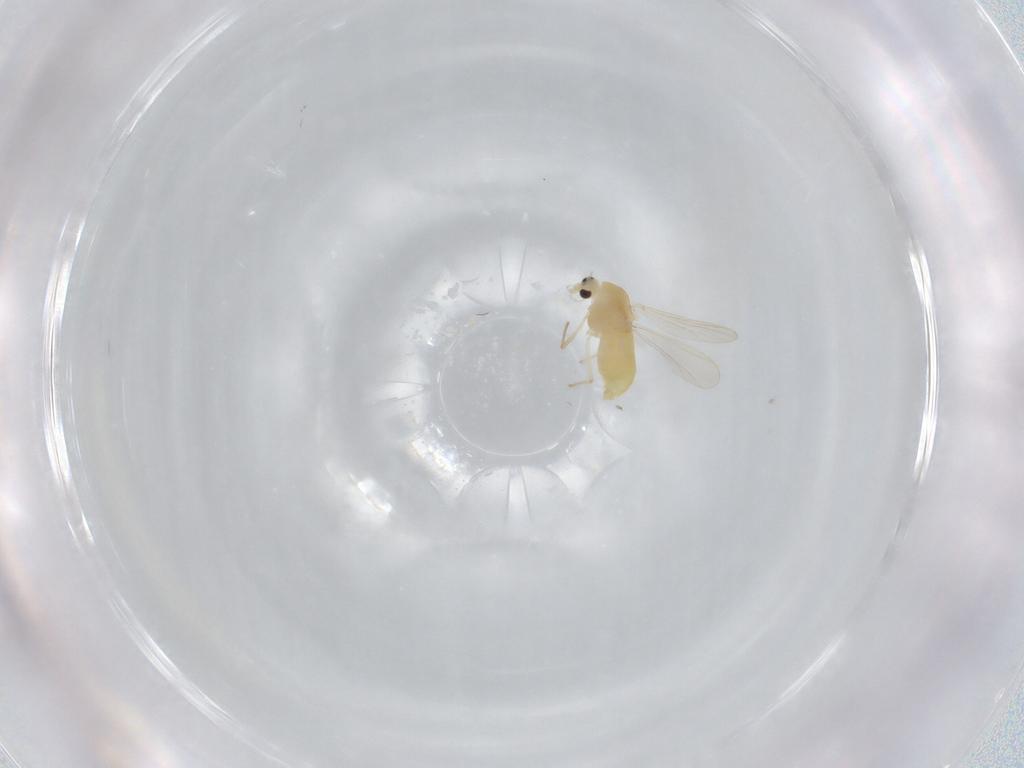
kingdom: Animalia
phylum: Arthropoda
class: Insecta
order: Diptera
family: Chironomidae
